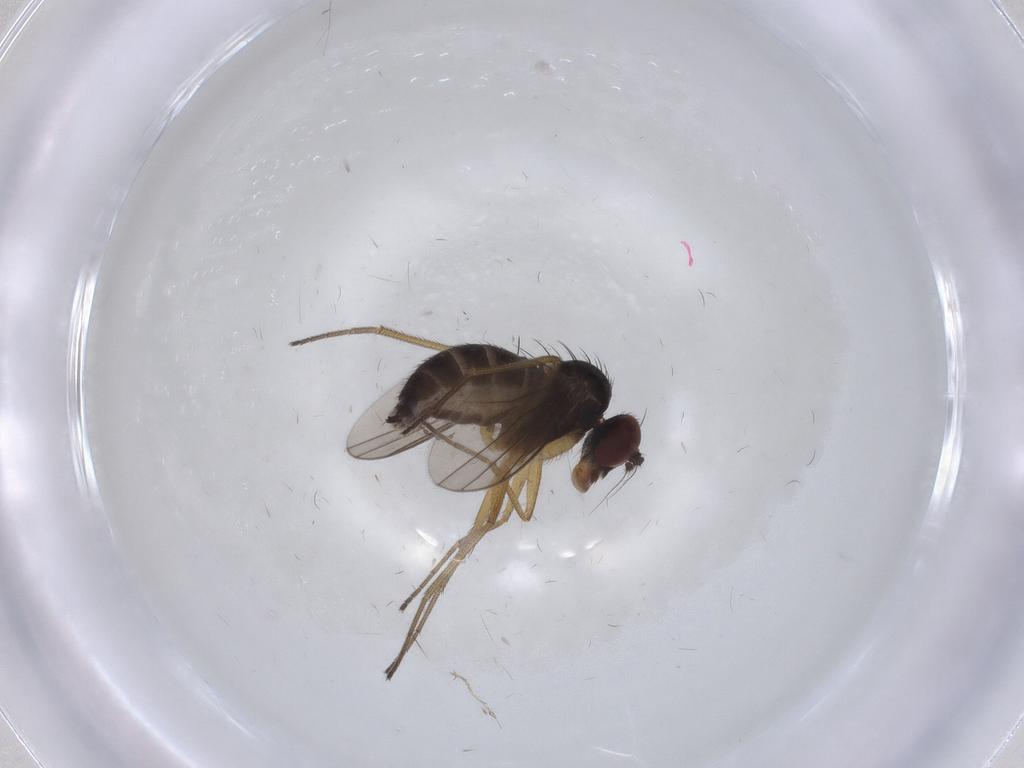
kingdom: Animalia
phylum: Arthropoda
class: Insecta
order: Diptera
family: Dolichopodidae
